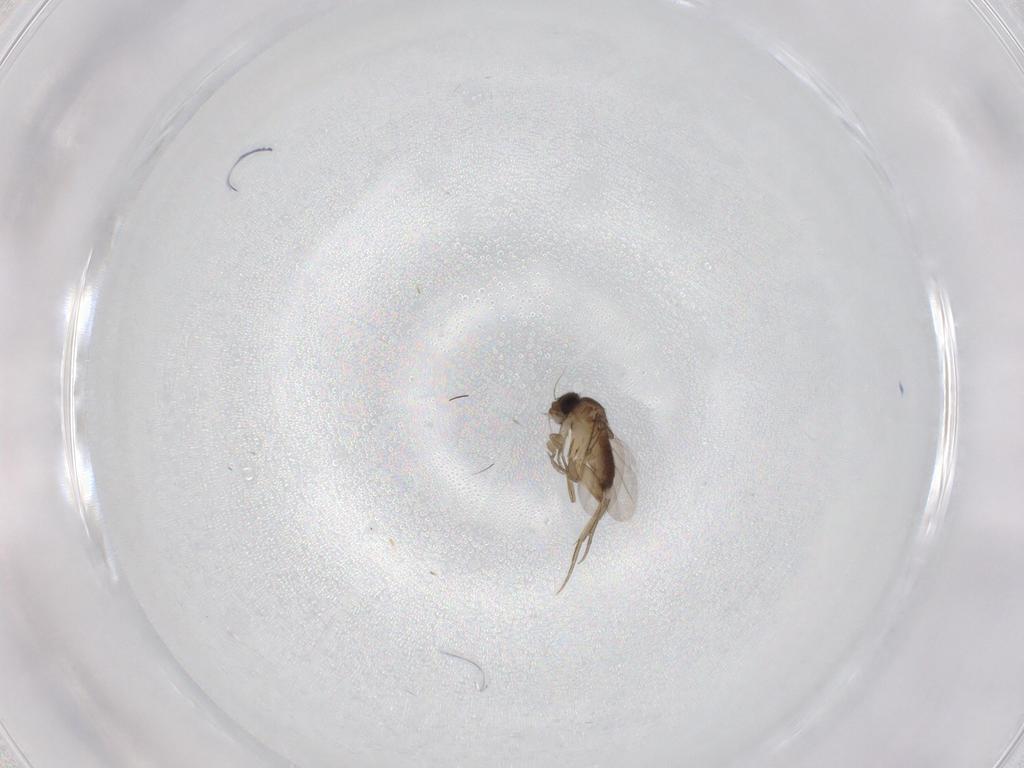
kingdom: Animalia
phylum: Arthropoda
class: Insecta
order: Diptera
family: Phoridae
